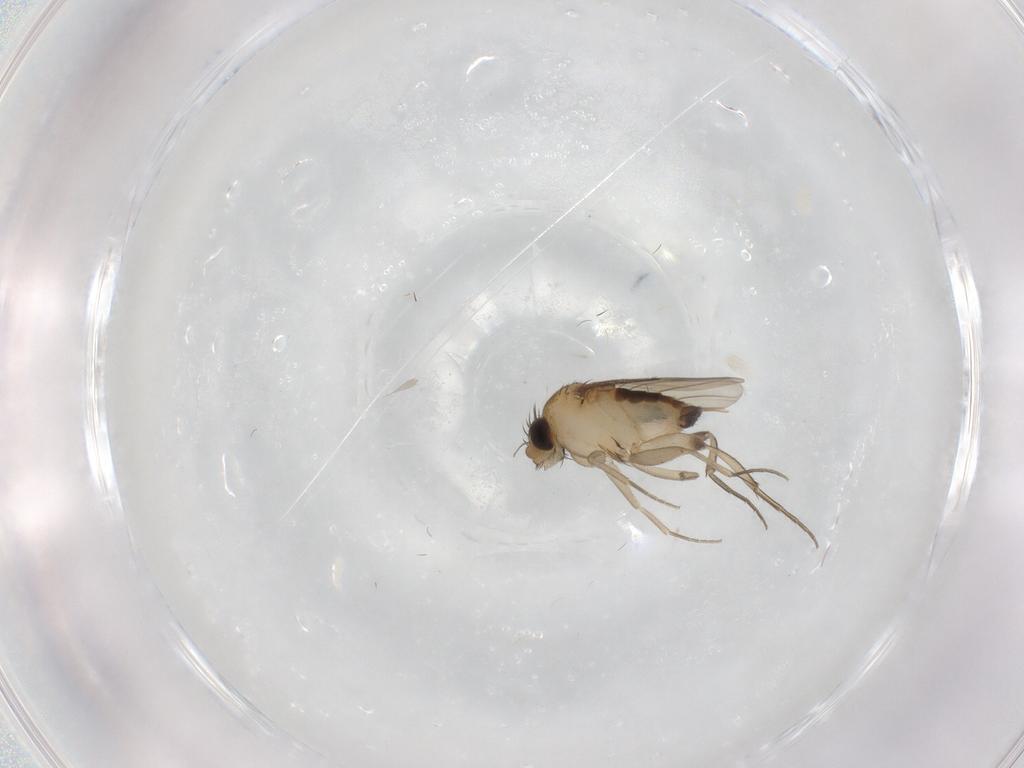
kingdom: Animalia
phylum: Arthropoda
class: Insecta
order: Diptera
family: Phoridae
